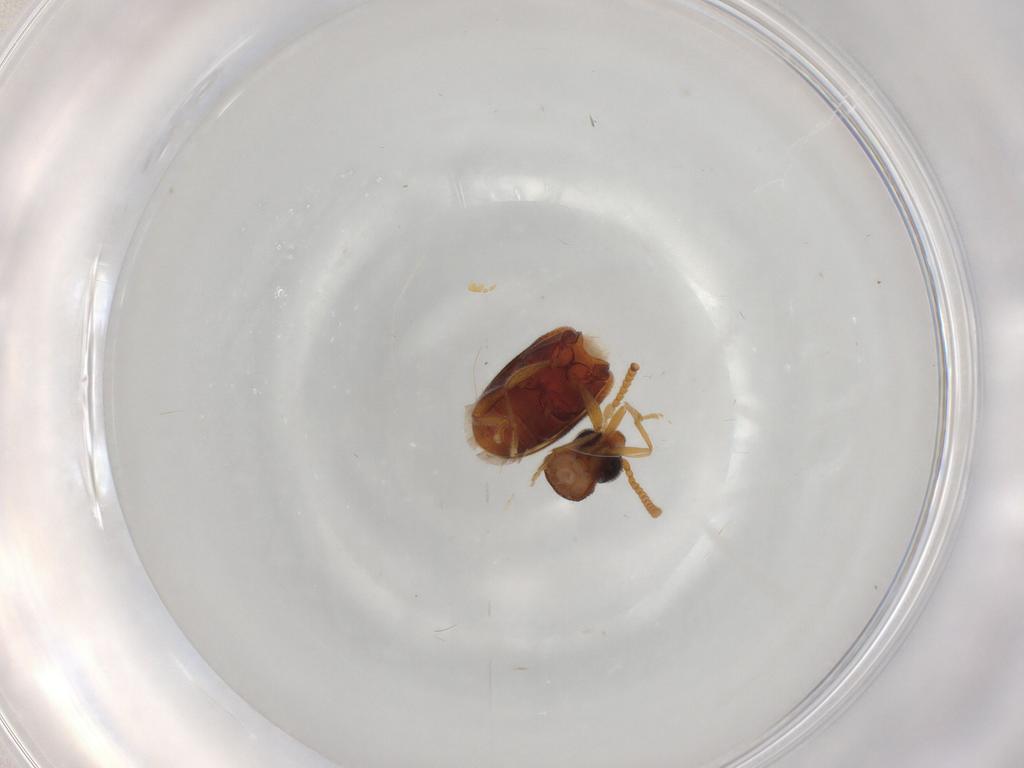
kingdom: Animalia
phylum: Arthropoda
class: Insecta
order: Coleoptera
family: Aderidae
